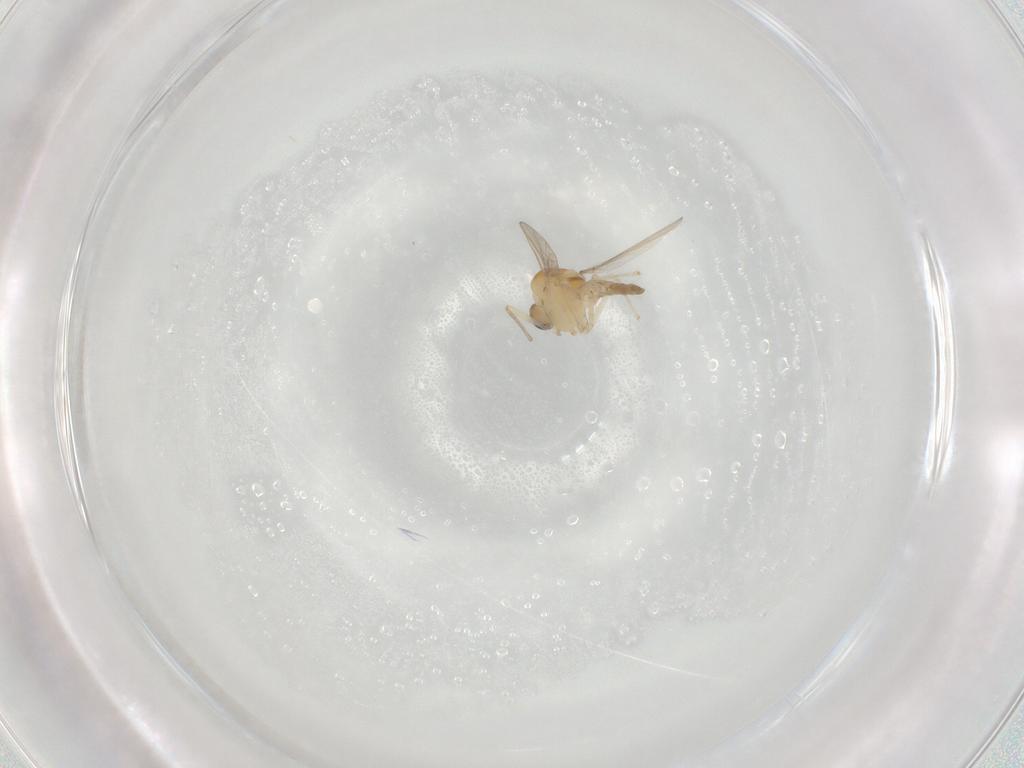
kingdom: Animalia
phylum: Arthropoda
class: Insecta
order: Diptera
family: Chironomidae
